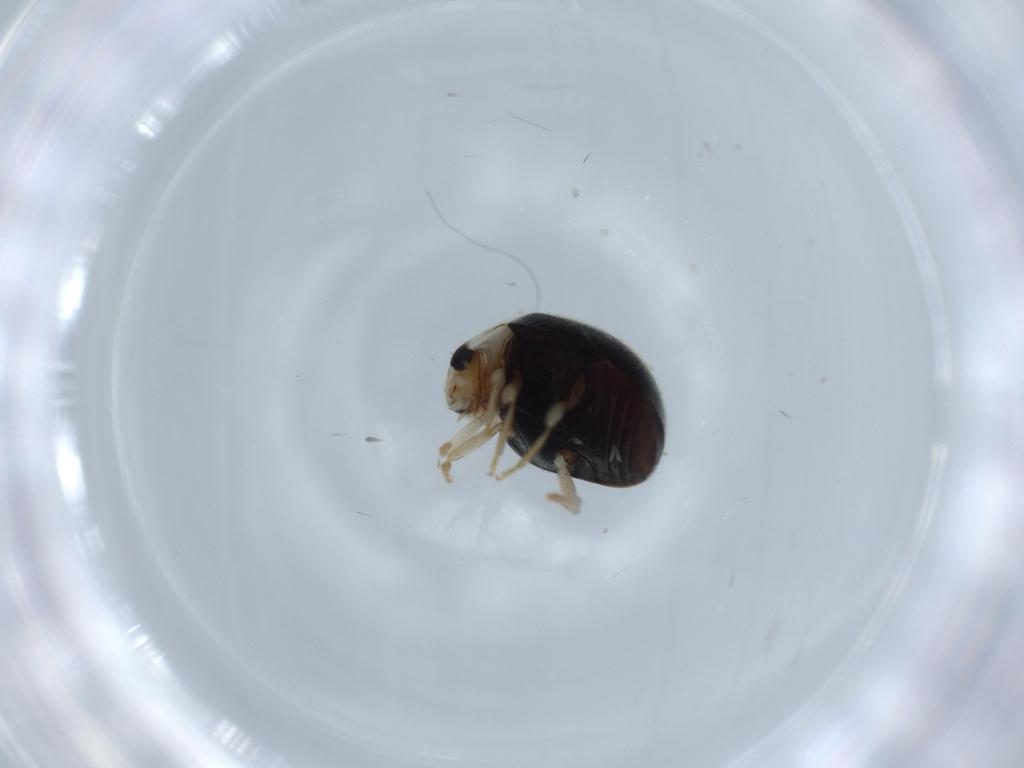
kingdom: Animalia
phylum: Arthropoda
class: Insecta
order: Coleoptera
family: Coccinellidae
